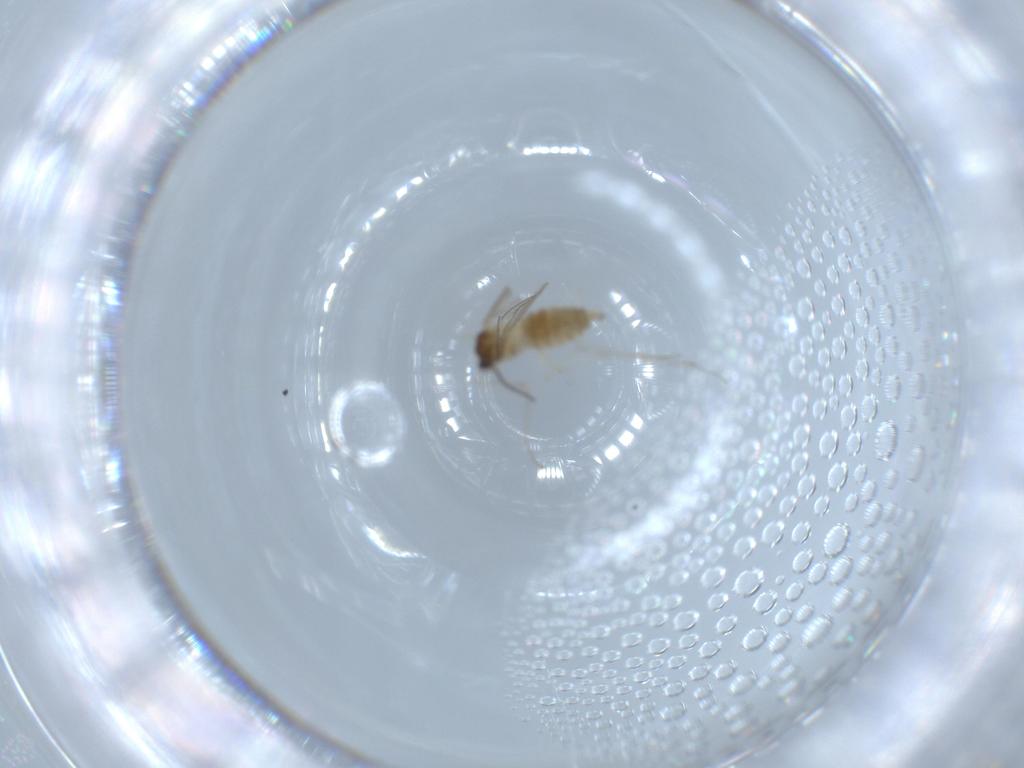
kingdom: Animalia
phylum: Arthropoda
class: Insecta
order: Diptera
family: Cecidomyiidae
